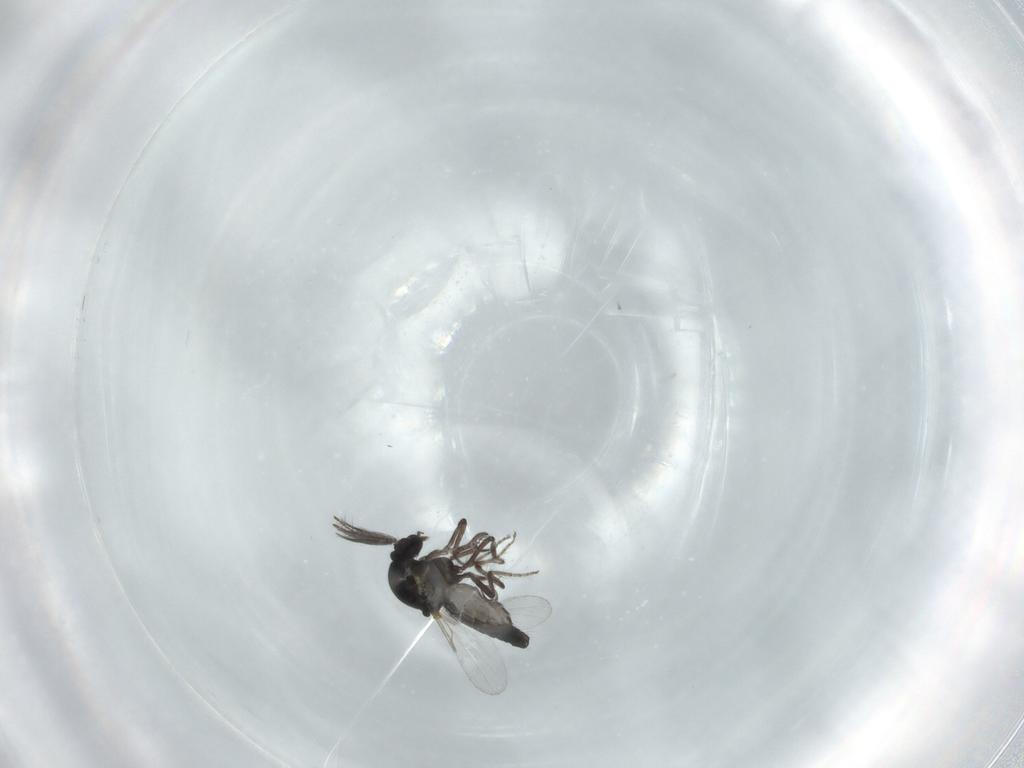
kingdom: Animalia
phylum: Arthropoda
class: Insecta
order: Diptera
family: Ceratopogonidae
